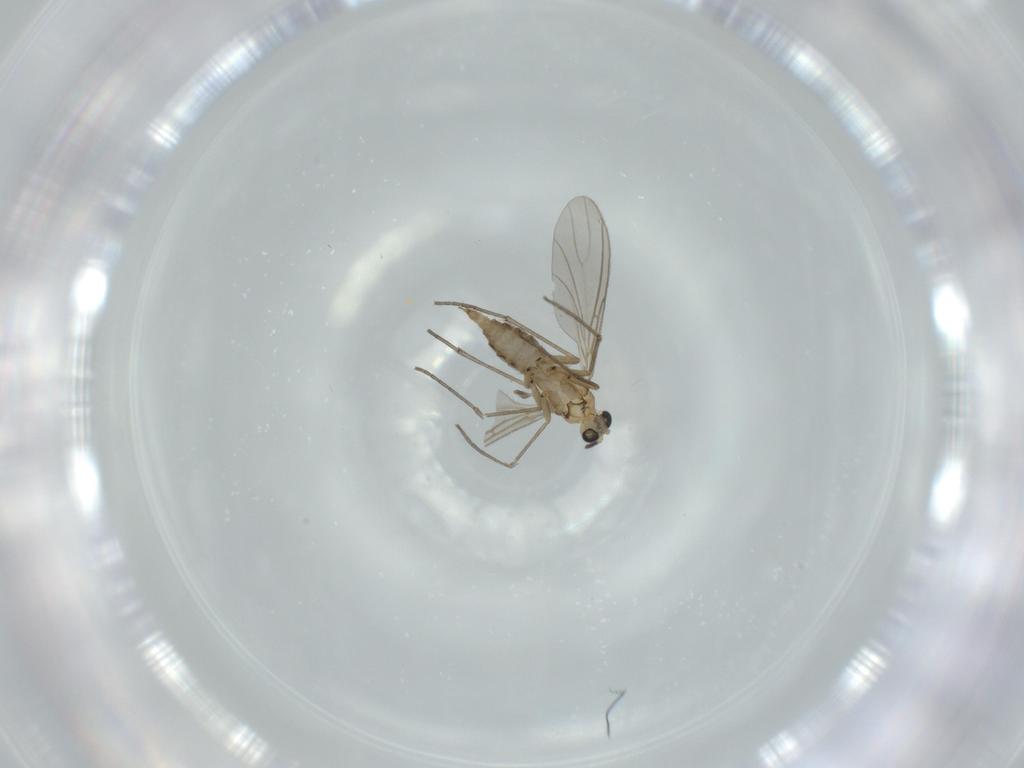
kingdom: Animalia
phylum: Arthropoda
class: Insecta
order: Diptera
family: Sciaridae
